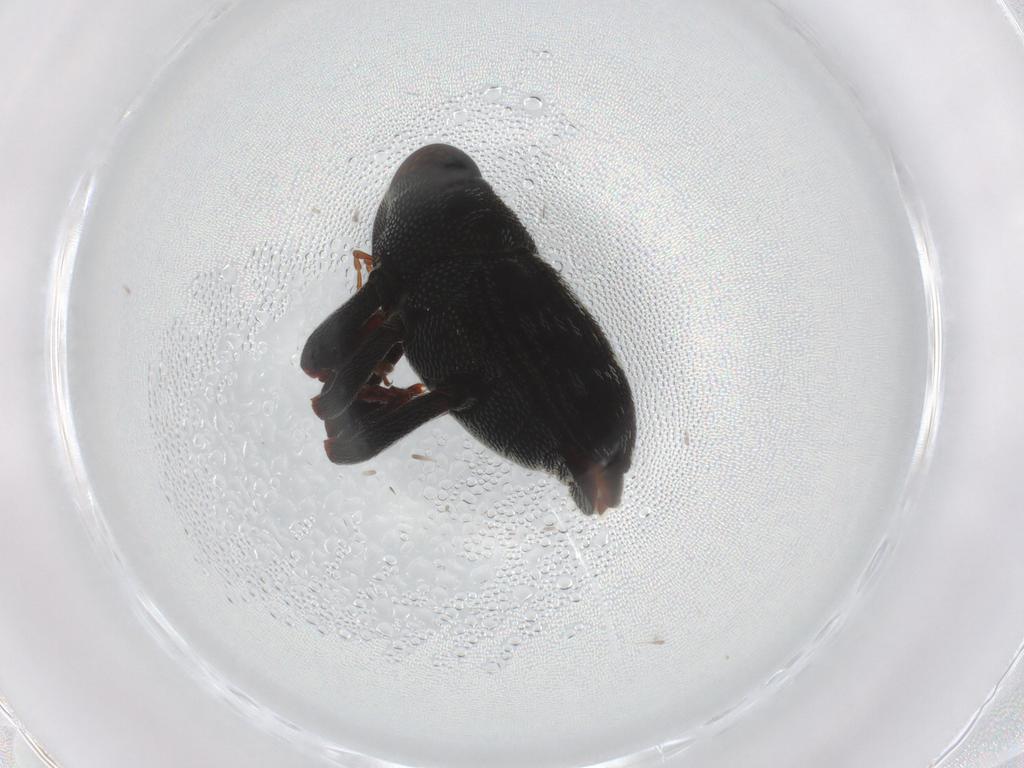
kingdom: Animalia
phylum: Arthropoda
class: Insecta
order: Coleoptera
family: Curculionidae
